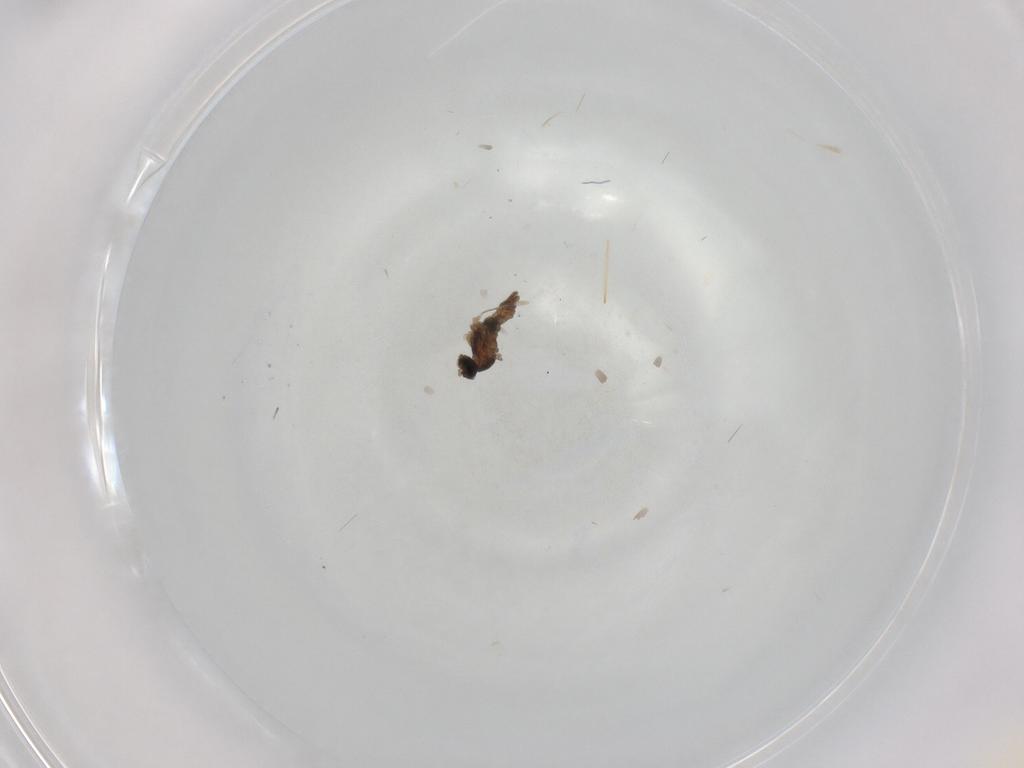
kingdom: Animalia
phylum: Arthropoda
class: Insecta
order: Diptera
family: Cecidomyiidae
